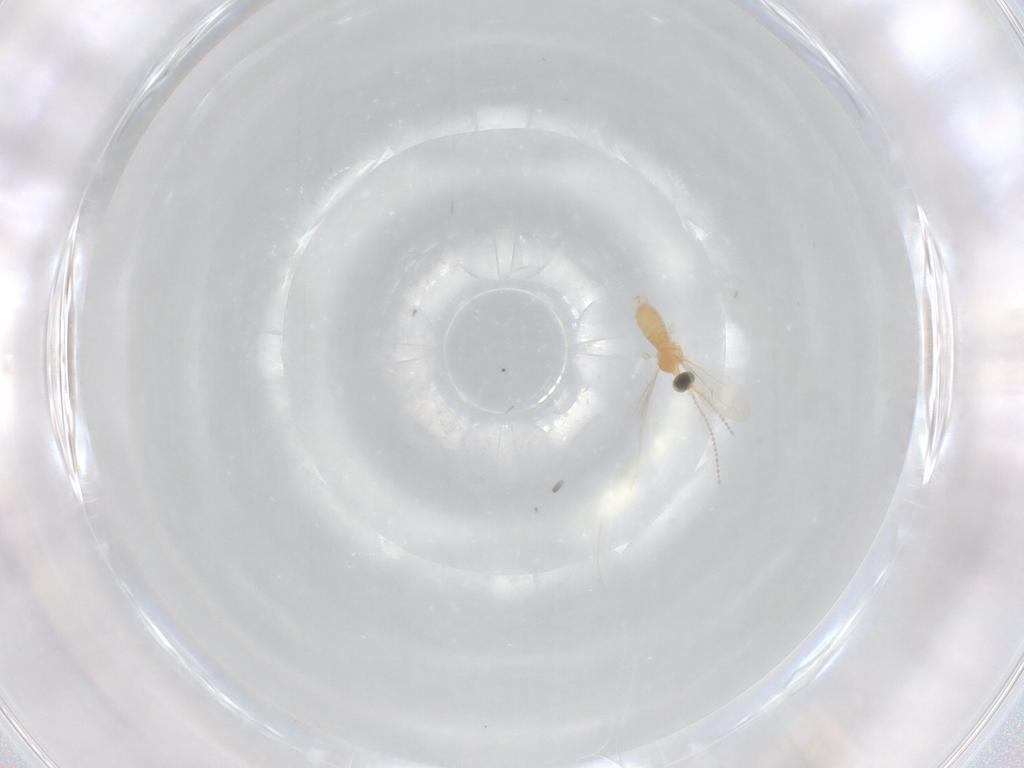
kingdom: Animalia
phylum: Arthropoda
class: Insecta
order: Diptera
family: Cecidomyiidae
